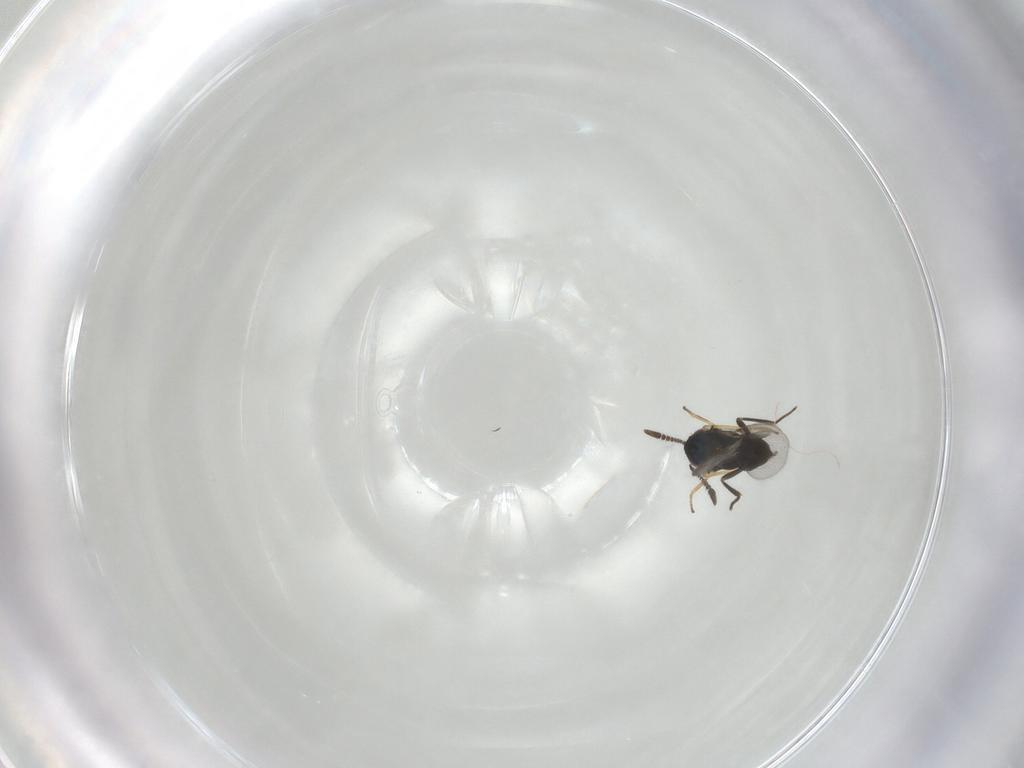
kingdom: Animalia
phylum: Arthropoda
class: Insecta
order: Hymenoptera
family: Encyrtidae
